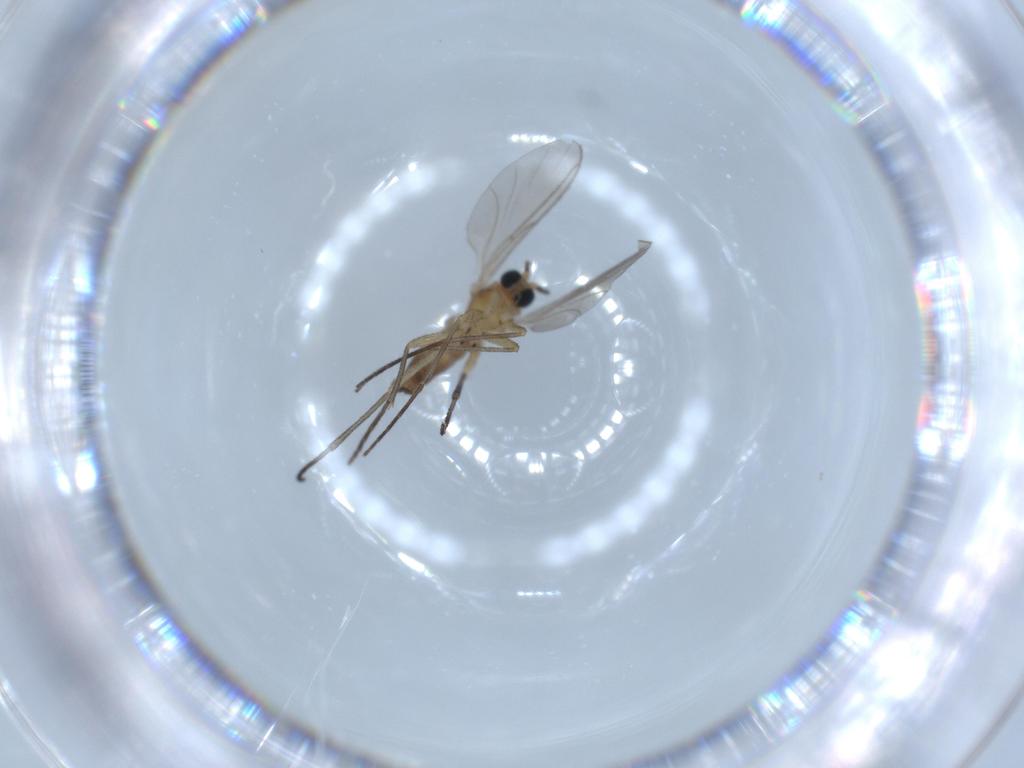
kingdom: Animalia
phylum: Arthropoda
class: Insecta
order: Diptera
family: Sciaridae
